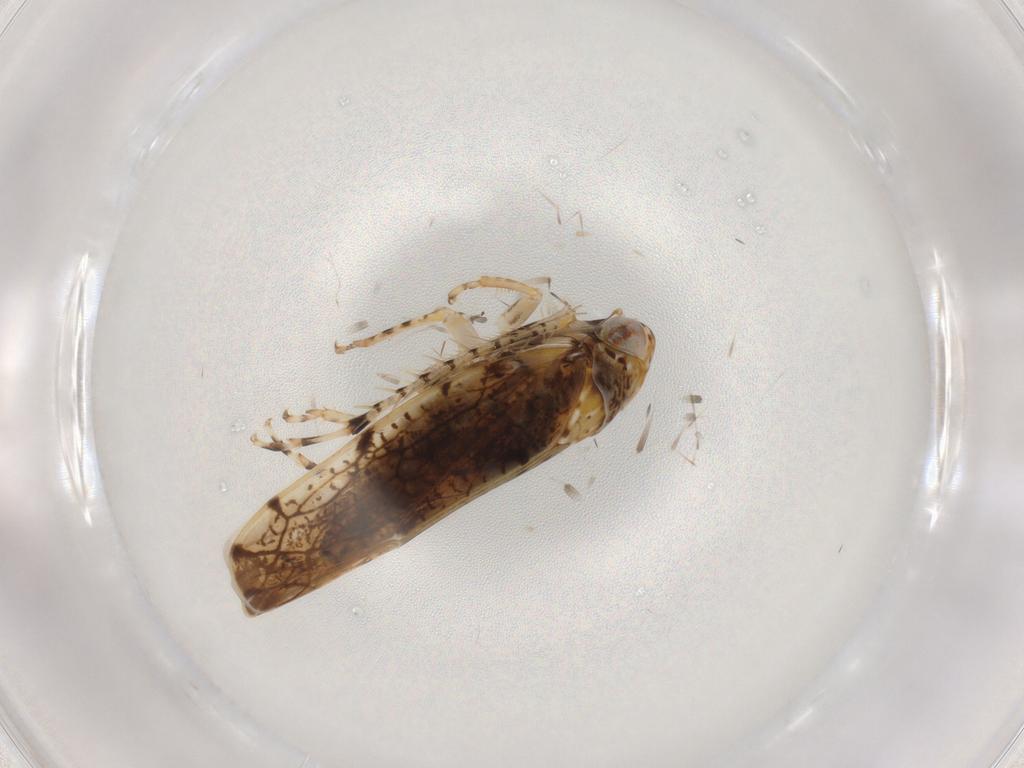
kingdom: Animalia
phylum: Arthropoda
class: Insecta
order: Hemiptera
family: Cicadellidae
